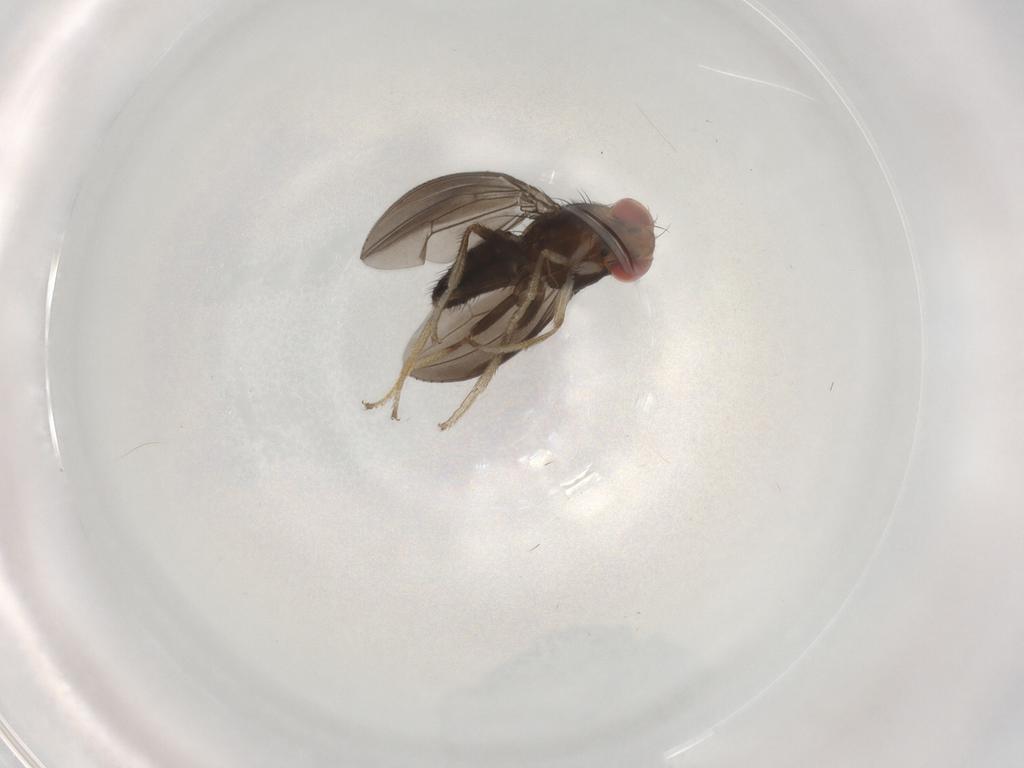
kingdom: Animalia
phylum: Arthropoda
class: Insecta
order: Diptera
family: Drosophilidae
